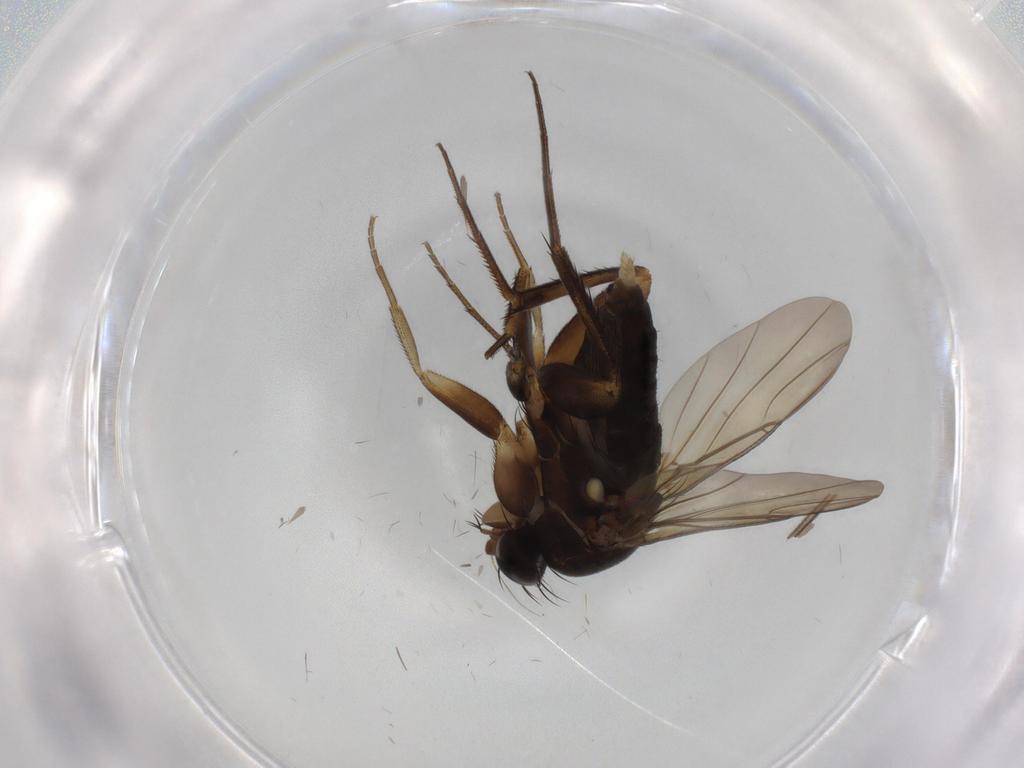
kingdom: Animalia
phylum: Arthropoda
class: Insecta
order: Diptera
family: Phoridae
